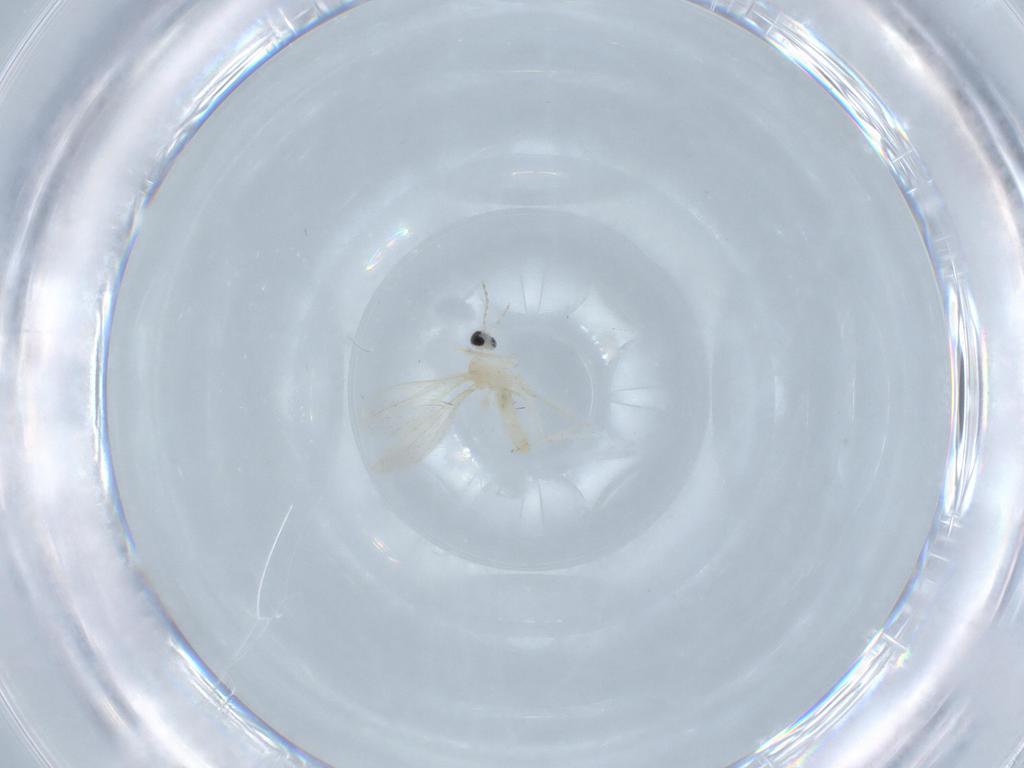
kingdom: Animalia
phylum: Arthropoda
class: Insecta
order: Diptera
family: Cecidomyiidae
